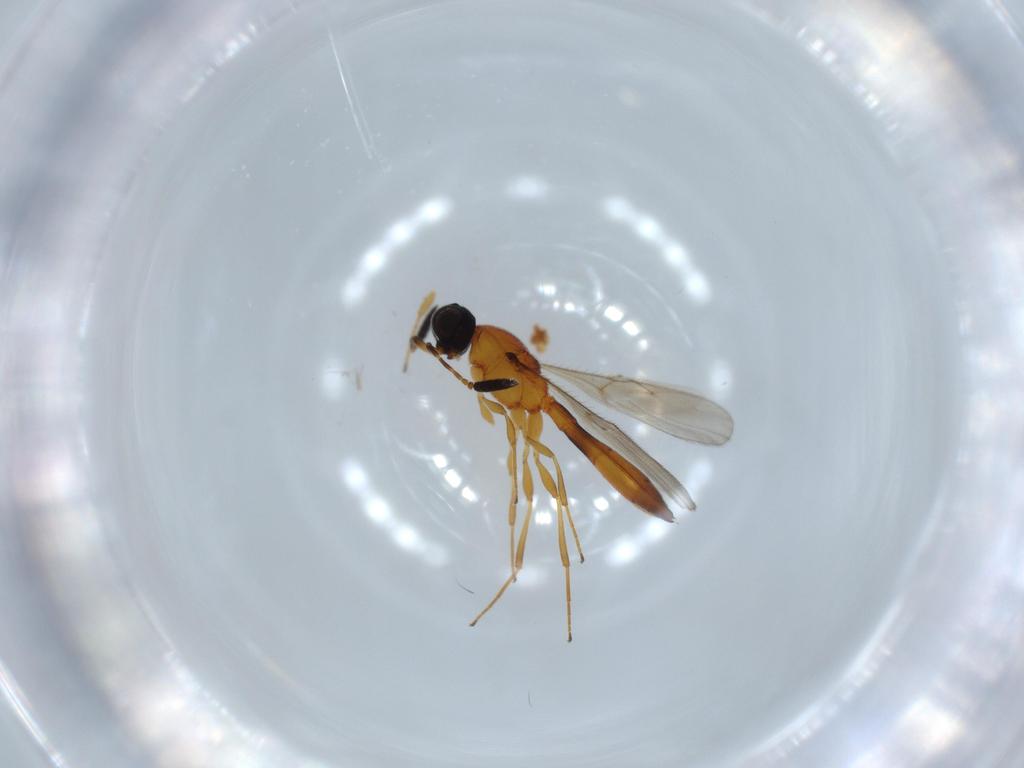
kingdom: Animalia
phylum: Arthropoda
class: Insecta
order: Hymenoptera
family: Scelionidae
